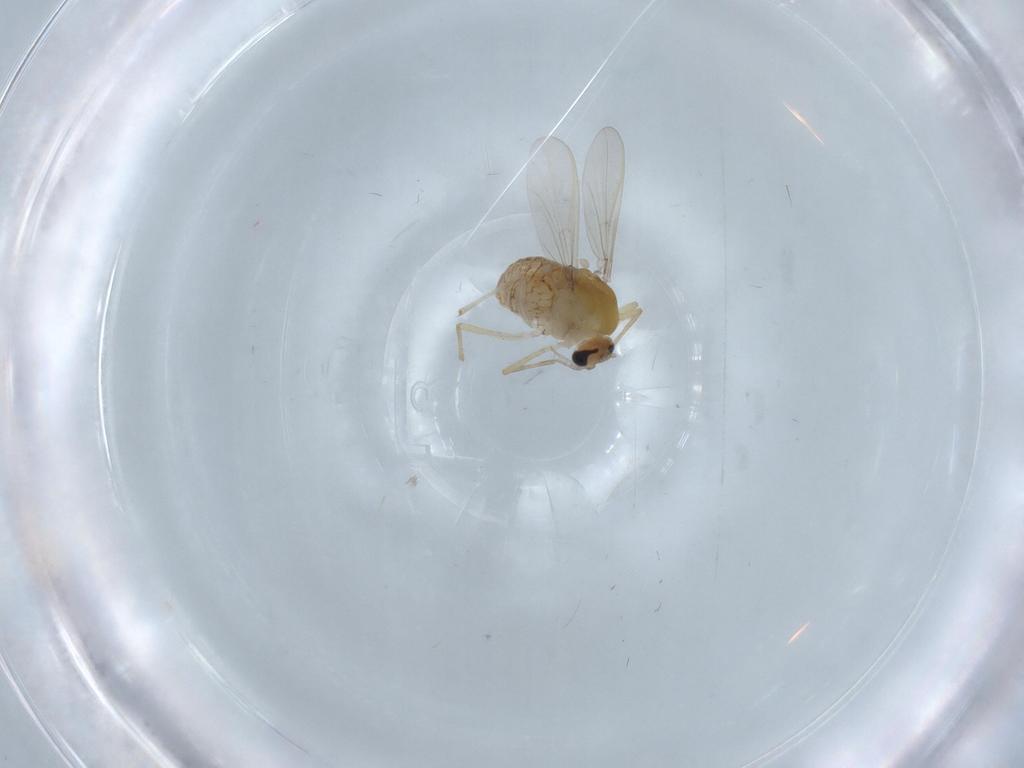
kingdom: Animalia
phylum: Arthropoda
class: Insecta
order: Diptera
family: Chironomidae
